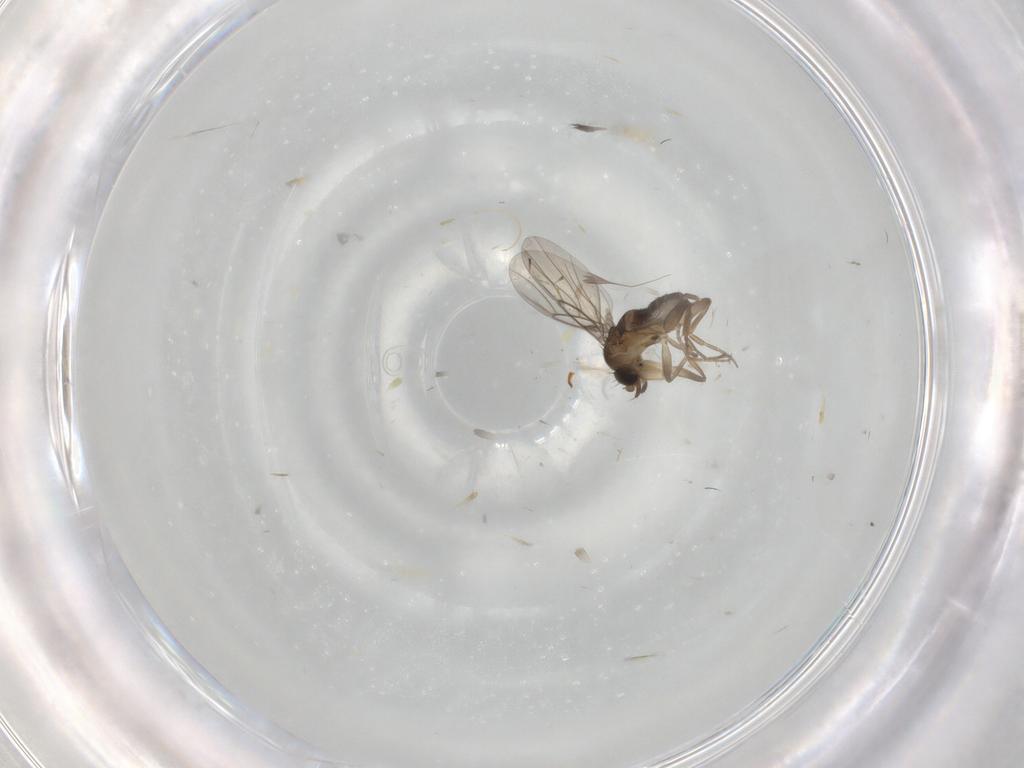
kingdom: Animalia
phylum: Arthropoda
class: Insecta
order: Diptera
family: Phoridae
